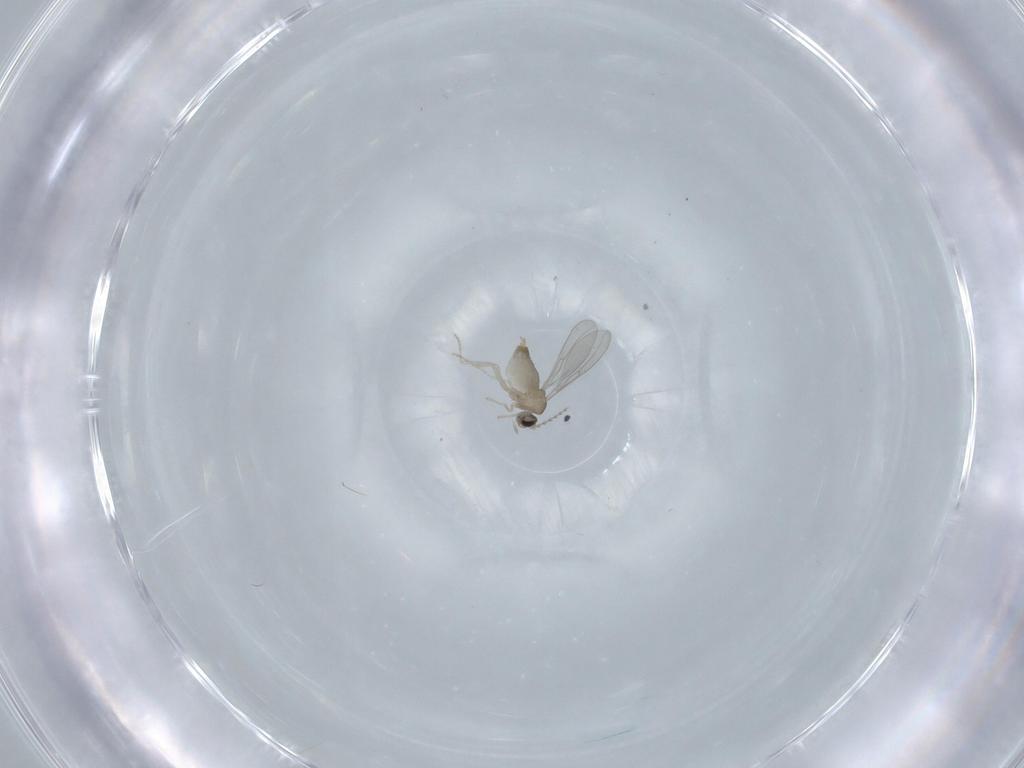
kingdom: Animalia
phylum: Arthropoda
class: Insecta
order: Diptera
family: Phoridae
